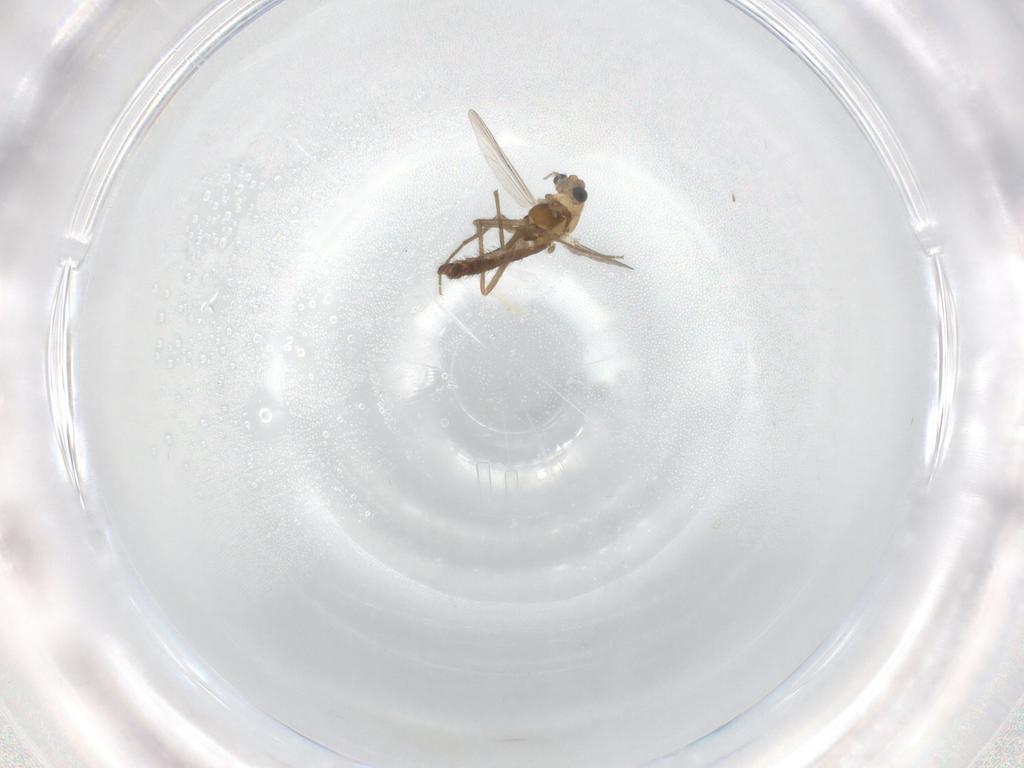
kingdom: Animalia
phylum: Arthropoda
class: Insecta
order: Diptera
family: Chironomidae
